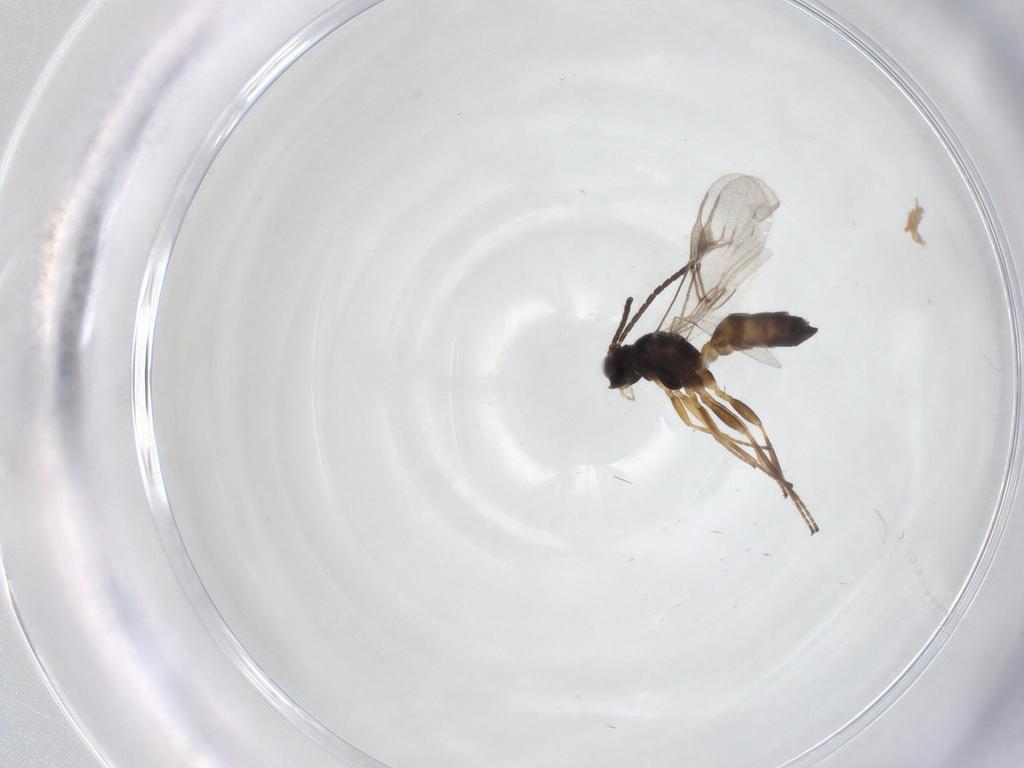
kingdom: Animalia
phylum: Arthropoda
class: Insecta
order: Hymenoptera
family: Braconidae
